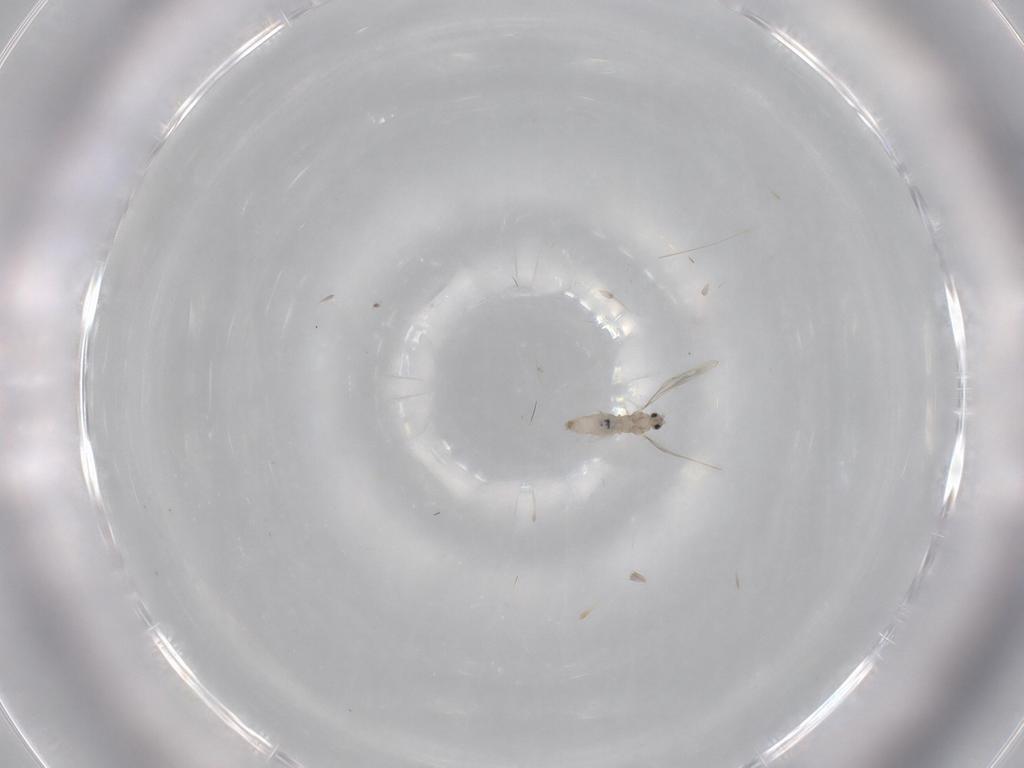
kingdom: Animalia
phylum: Arthropoda
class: Insecta
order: Diptera
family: Cecidomyiidae
